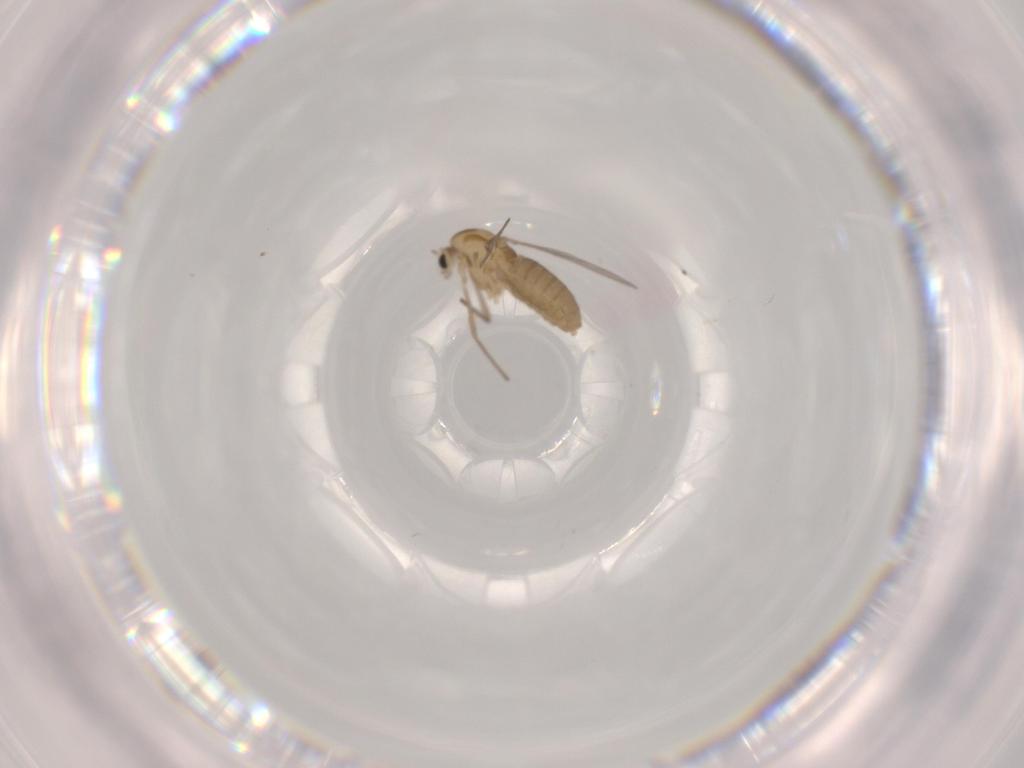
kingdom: Animalia
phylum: Arthropoda
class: Insecta
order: Diptera
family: Chironomidae
